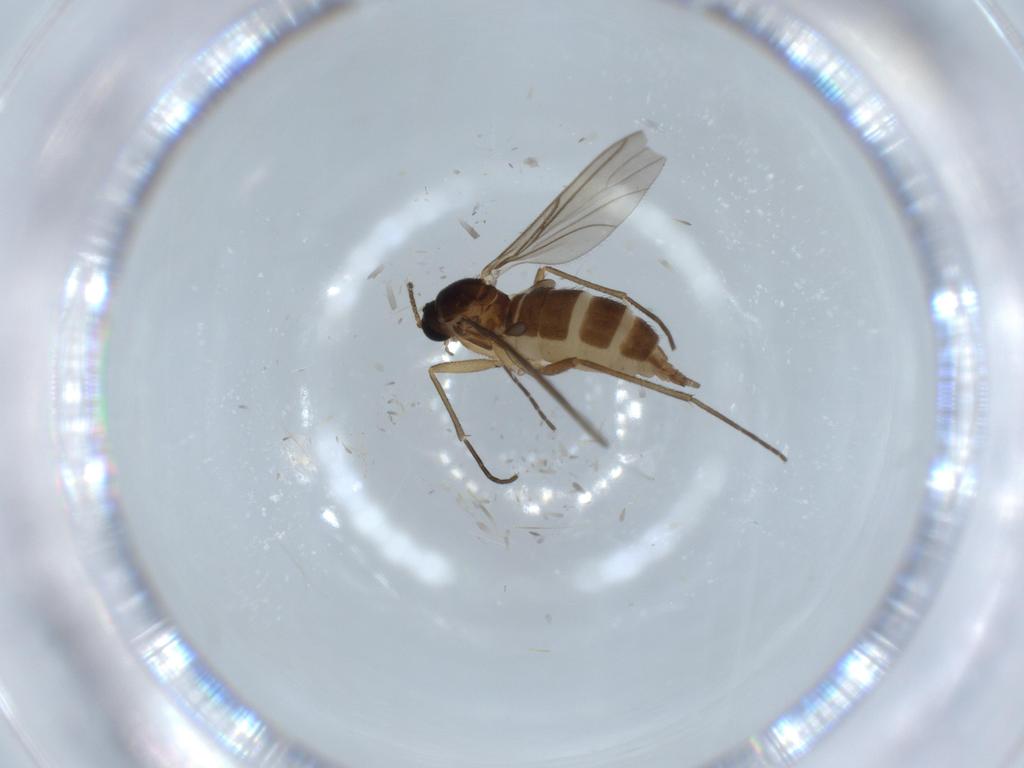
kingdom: Animalia
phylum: Arthropoda
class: Insecta
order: Diptera
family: Sciaridae
